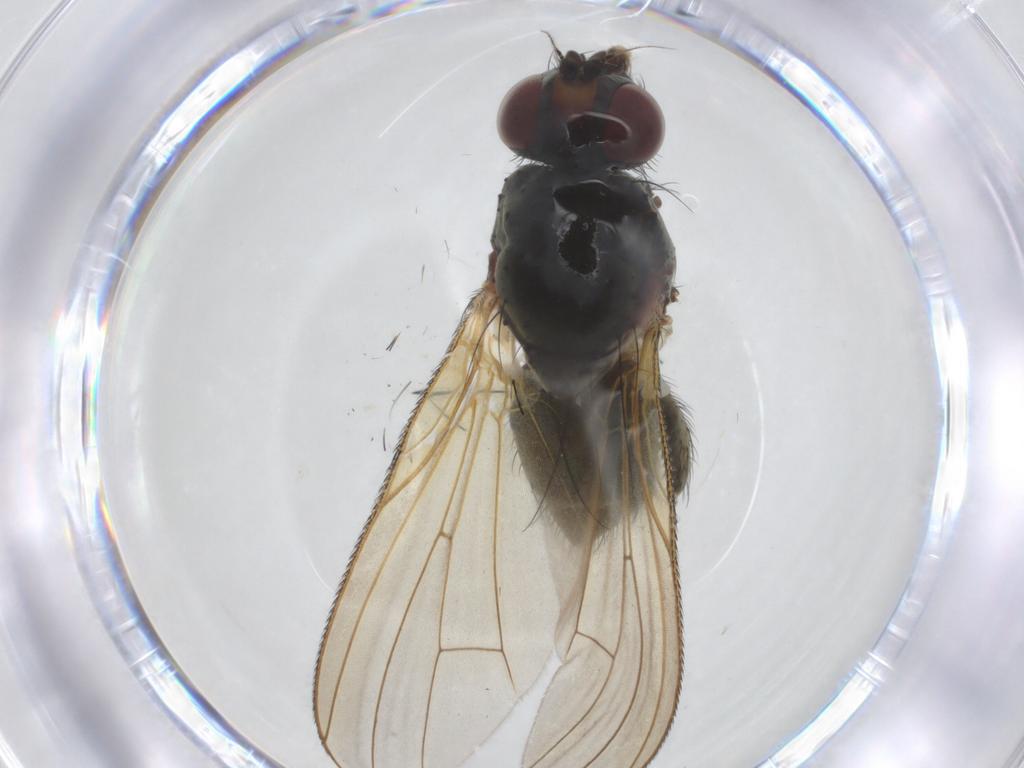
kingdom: Animalia
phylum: Arthropoda
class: Insecta
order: Diptera
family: Anthomyiidae
